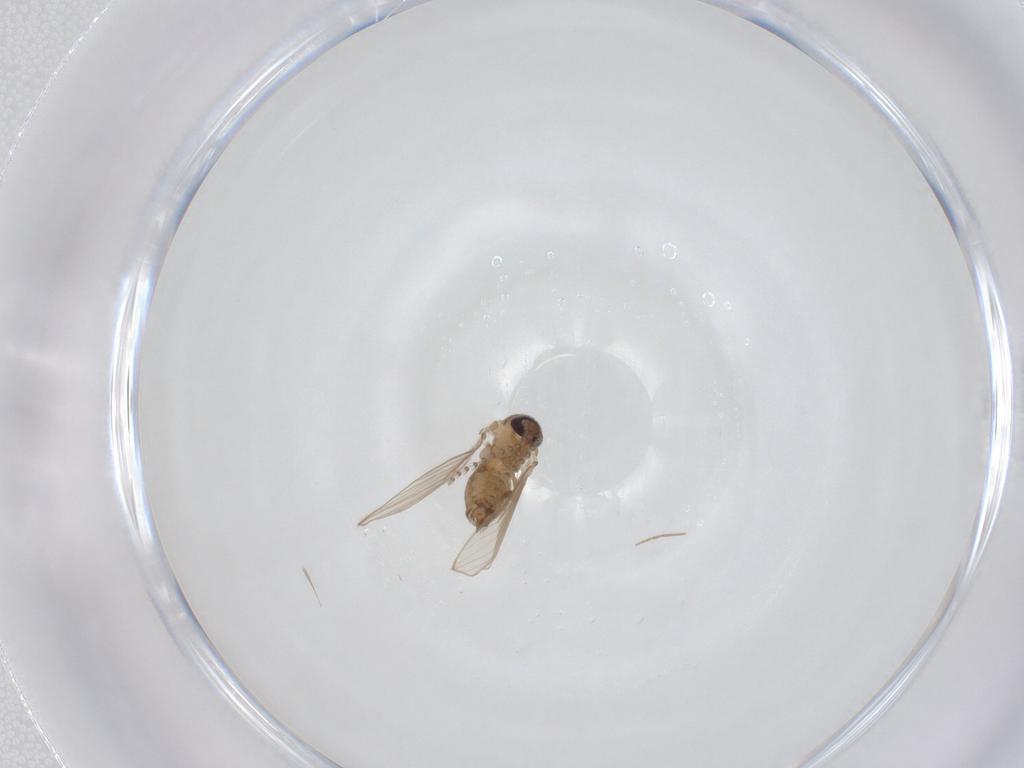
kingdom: Animalia
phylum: Arthropoda
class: Insecta
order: Diptera
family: Psychodidae
